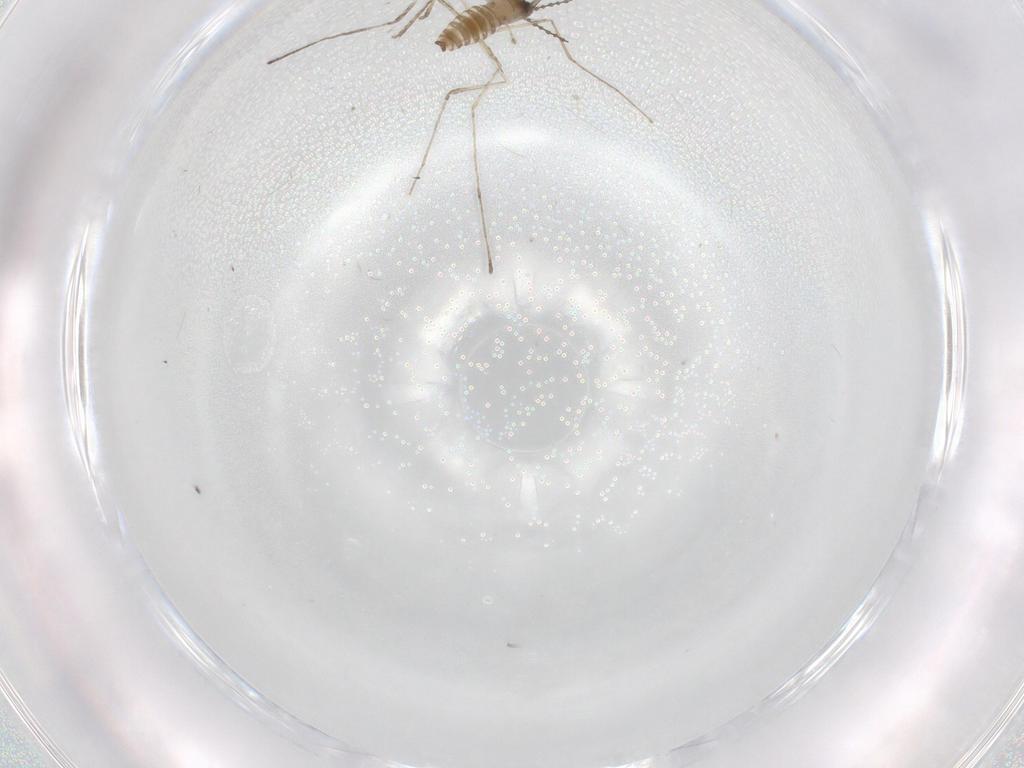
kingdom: Animalia
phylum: Arthropoda
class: Insecta
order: Diptera
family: Cecidomyiidae
